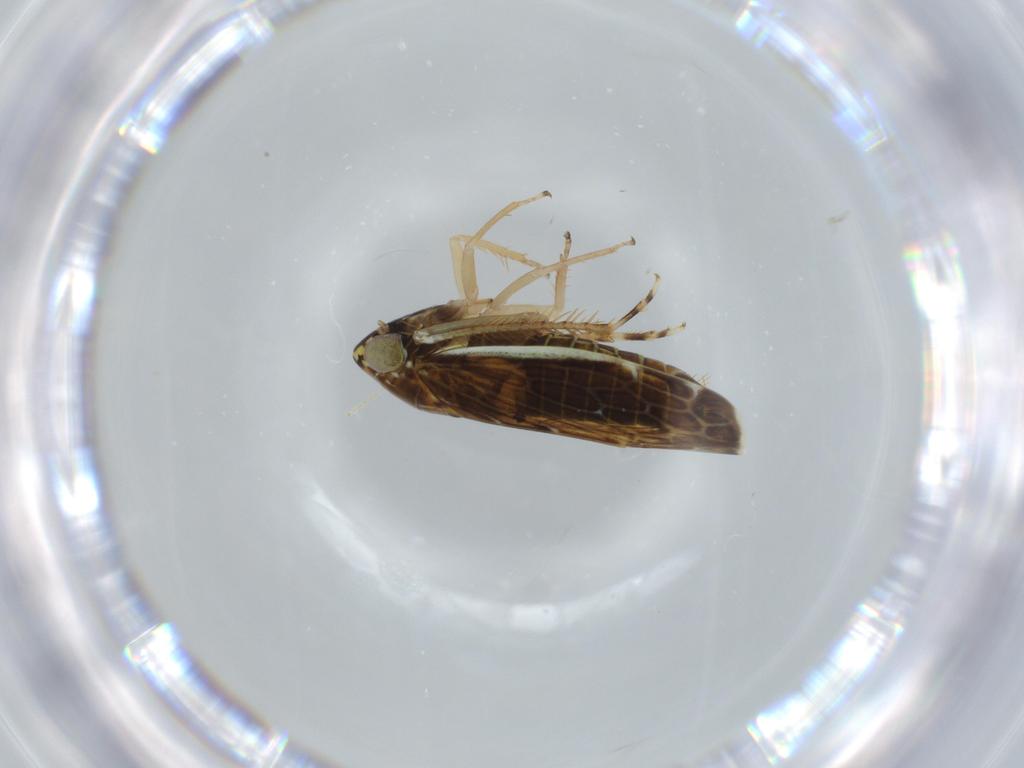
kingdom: Animalia
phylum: Arthropoda
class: Insecta
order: Hemiptera
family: Cicadellidae
